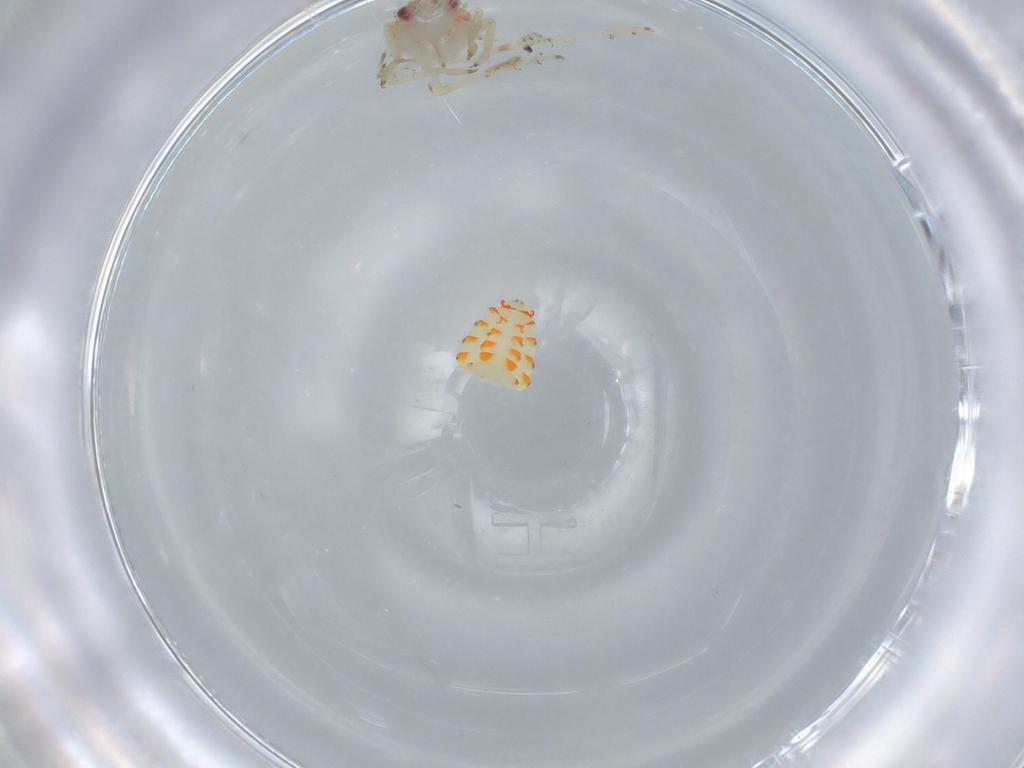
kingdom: Animalia
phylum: Arthropoda
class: Insecta
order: Hemiptera
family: Tropiduchidae
